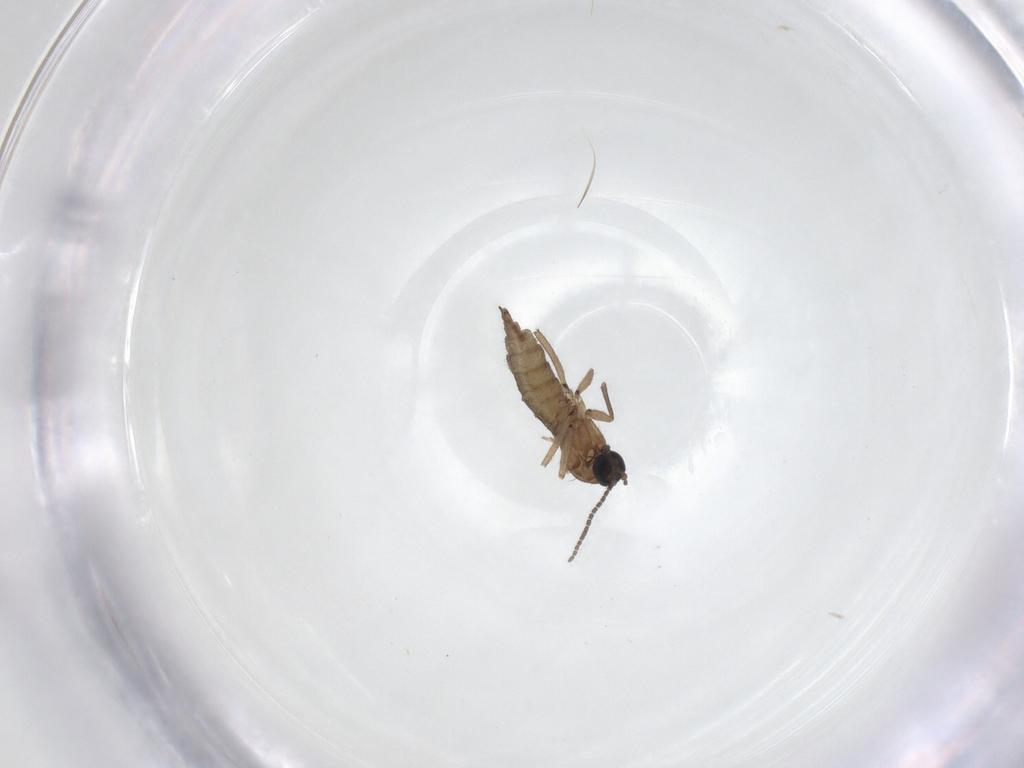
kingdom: Animalia
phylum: Arthropoda
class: Insecta
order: Diptera
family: Sciaridae
